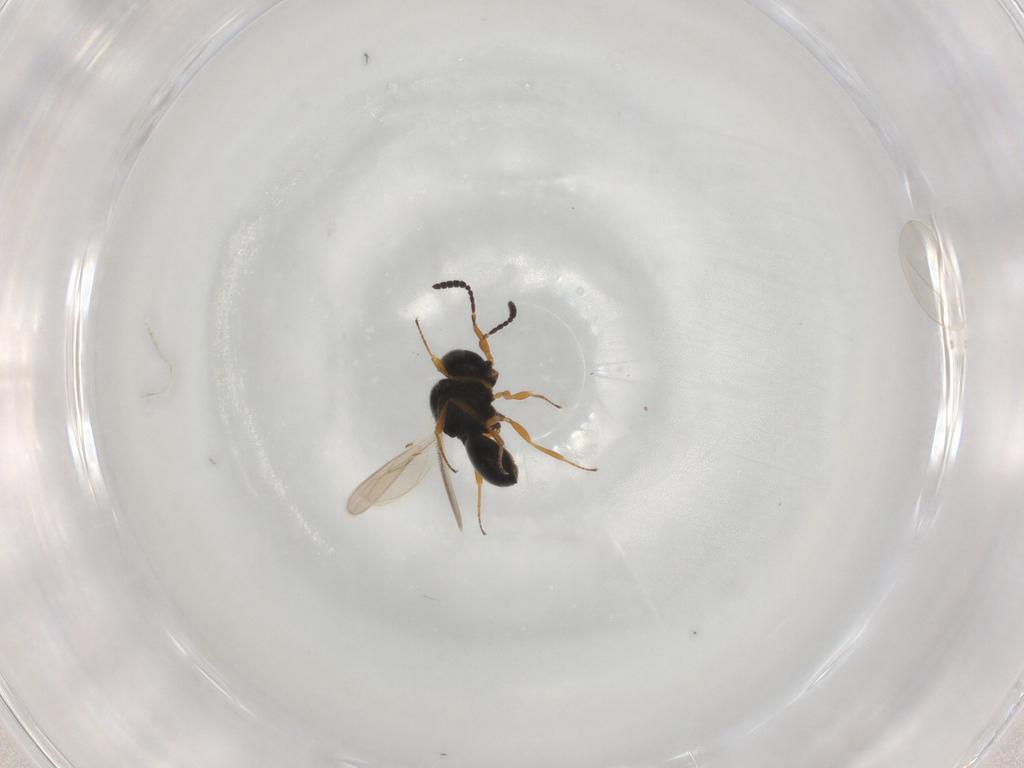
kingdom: Animalia
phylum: Arthropoda
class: Insecta
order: Hymenoptera
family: Scelionidae
